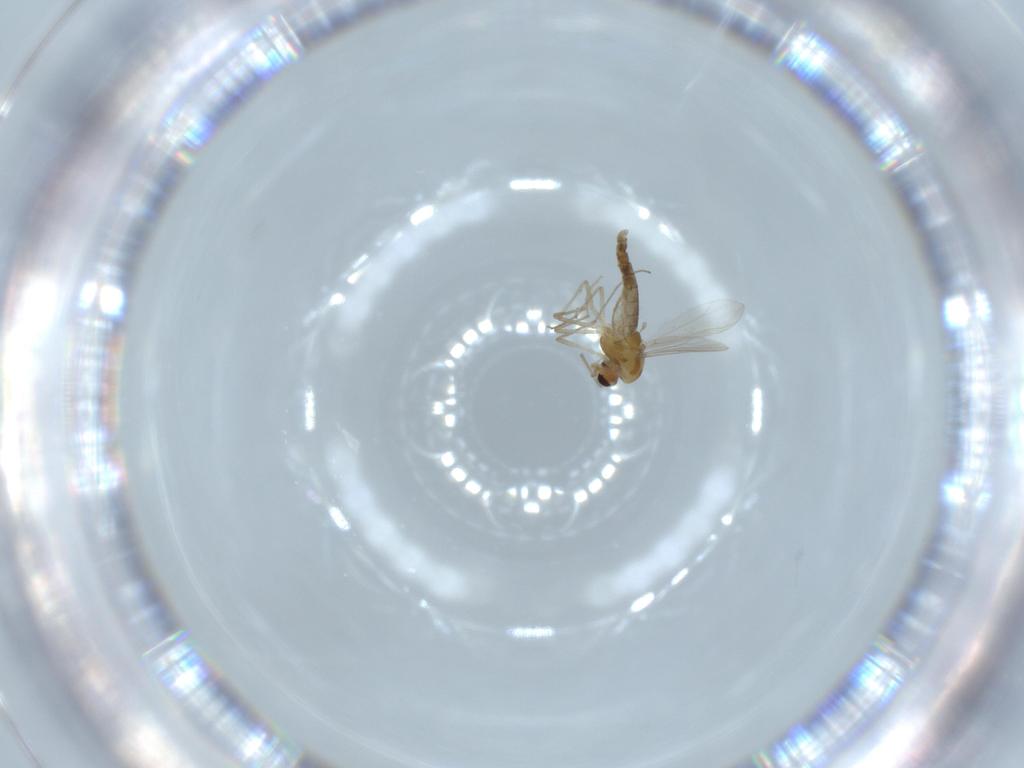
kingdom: Animalia
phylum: Arthropoda
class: Insecta
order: Diptera
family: Chironomidae
